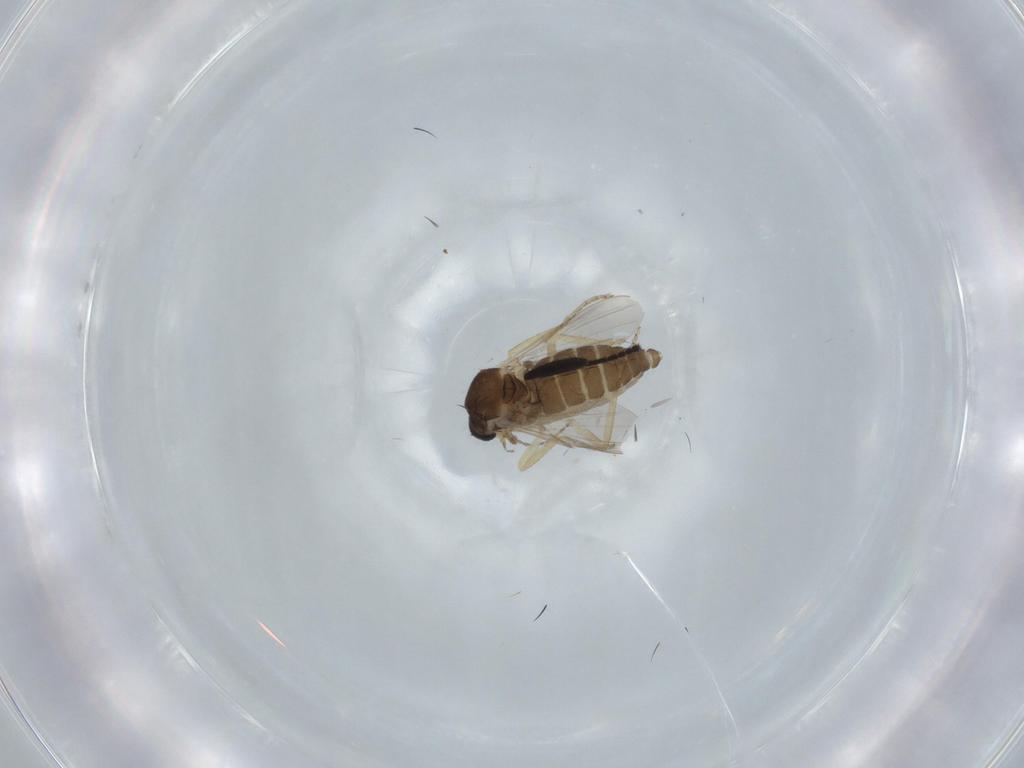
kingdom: Animalia
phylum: Arthropoda
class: Insecta
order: Diptera
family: Ceratopogonidae
